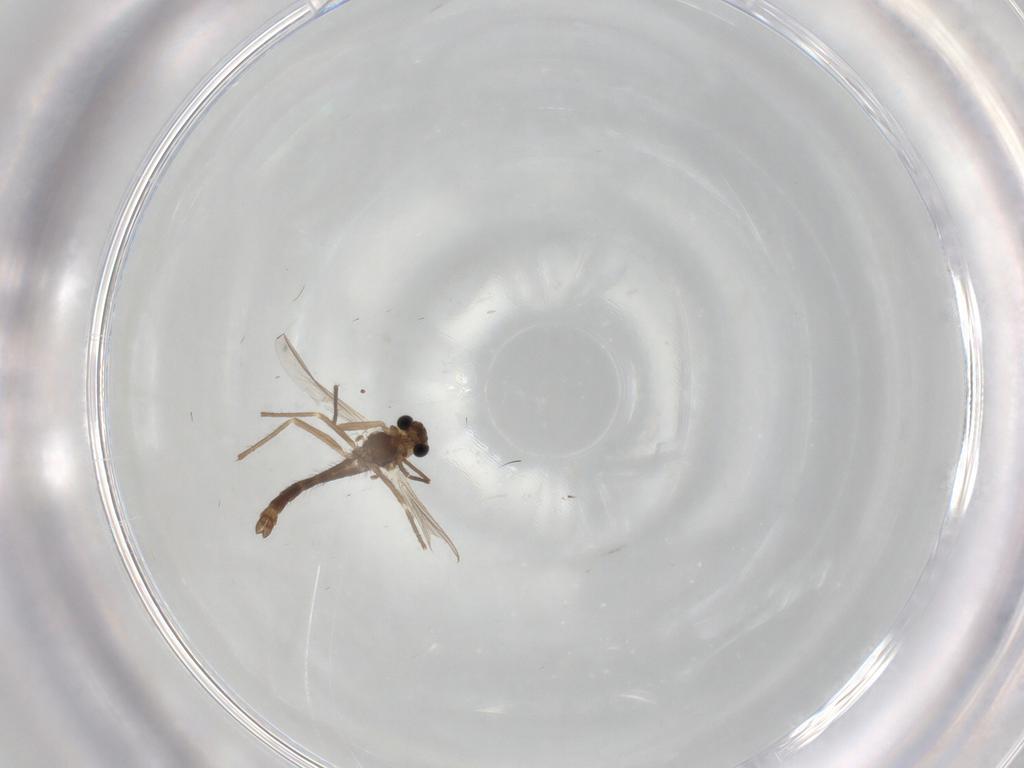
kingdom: Animalia
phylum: Arthropoda
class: Insecta
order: Diptera
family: Chironomidae
